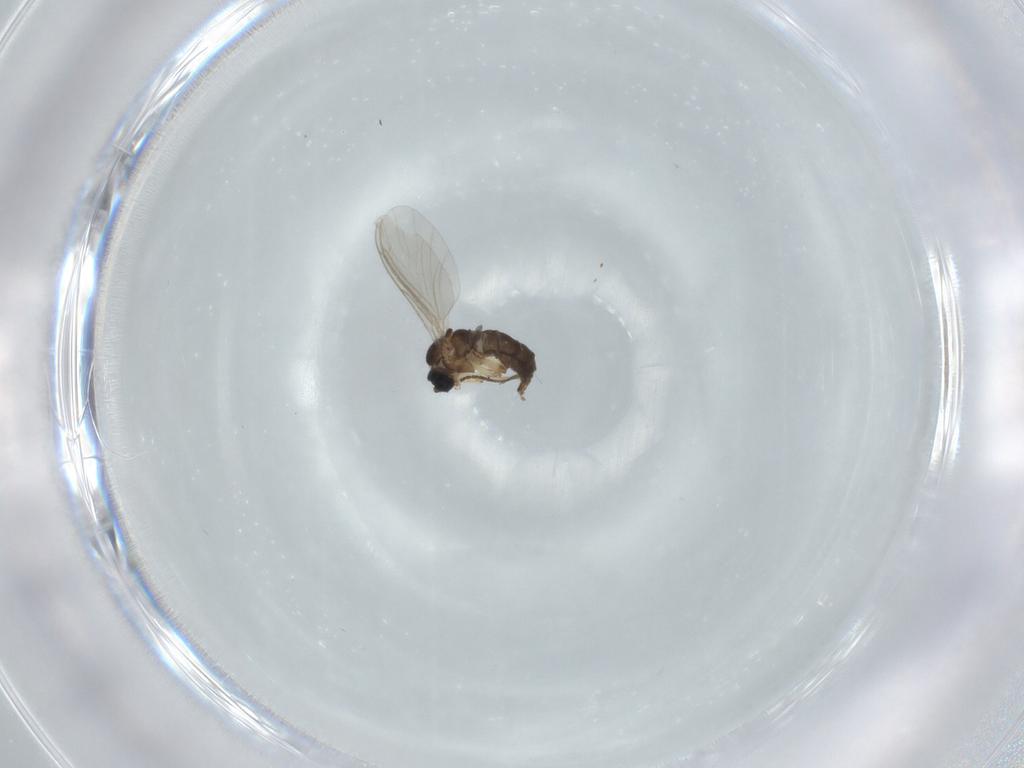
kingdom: Animalia
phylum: Arthropoda
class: Insecta
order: Diptera
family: Sciaridae
